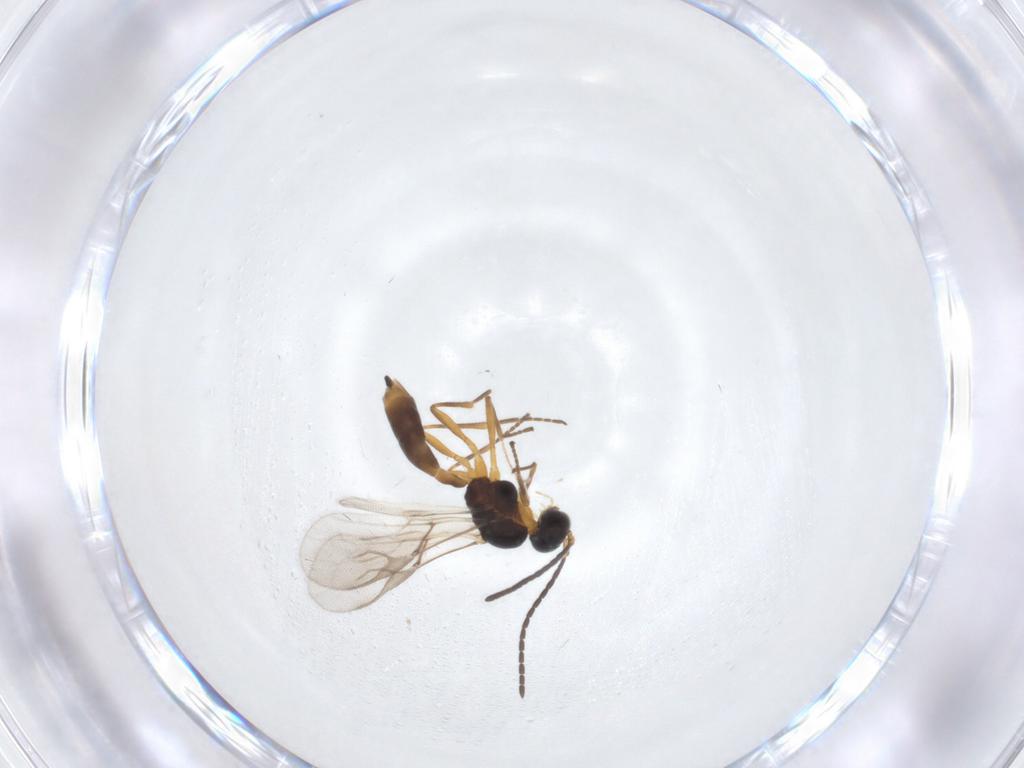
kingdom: Animalia
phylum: Arthropoda
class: Insecta
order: Hymenoptera
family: Braconidae
